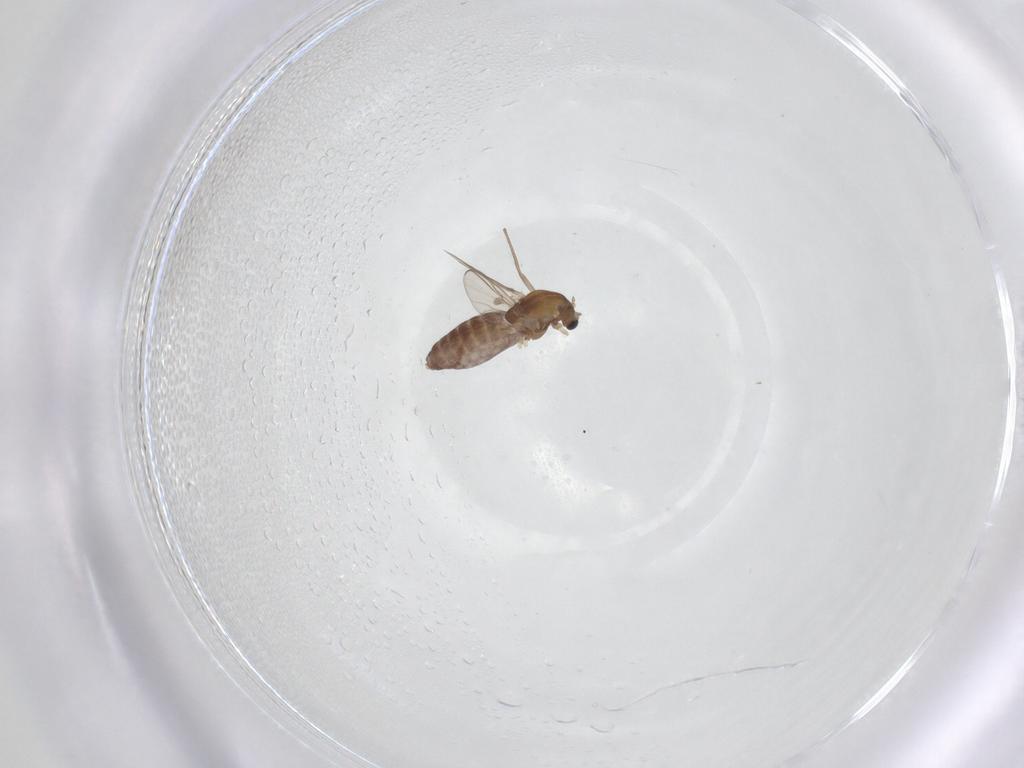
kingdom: Animalia
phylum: Arthropoda
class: Insecta
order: Diptera
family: Chironomidae
